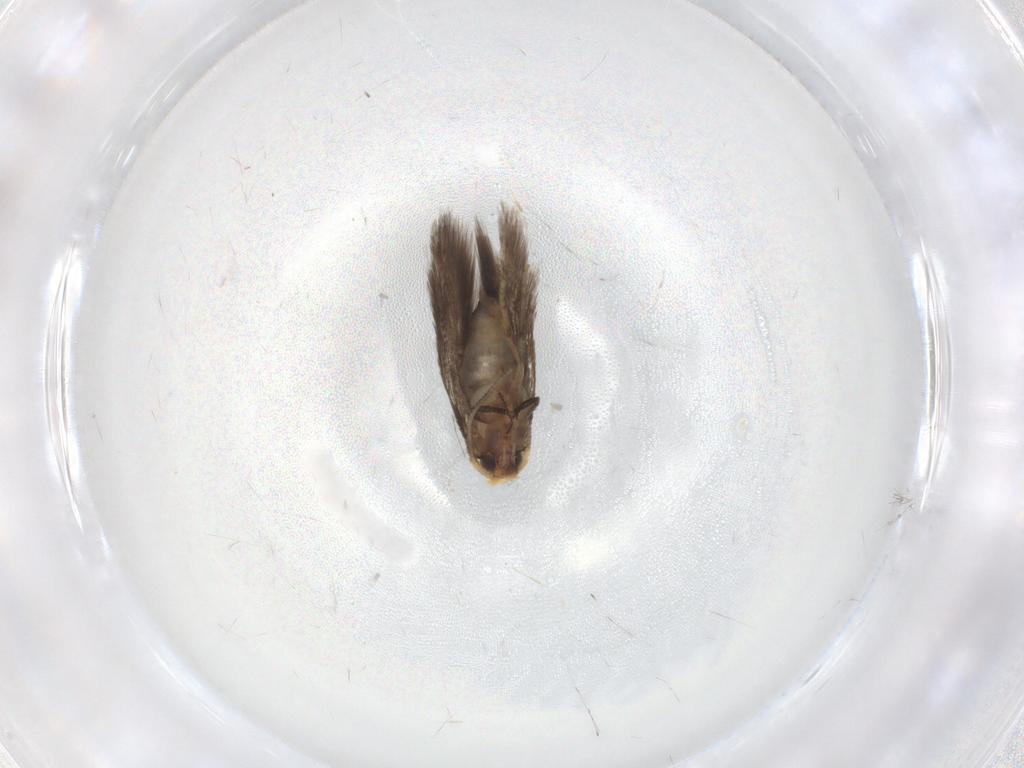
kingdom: Animalia
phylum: Arthropoda
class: Insecta
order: Lepidoptera
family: Nepticulidae
